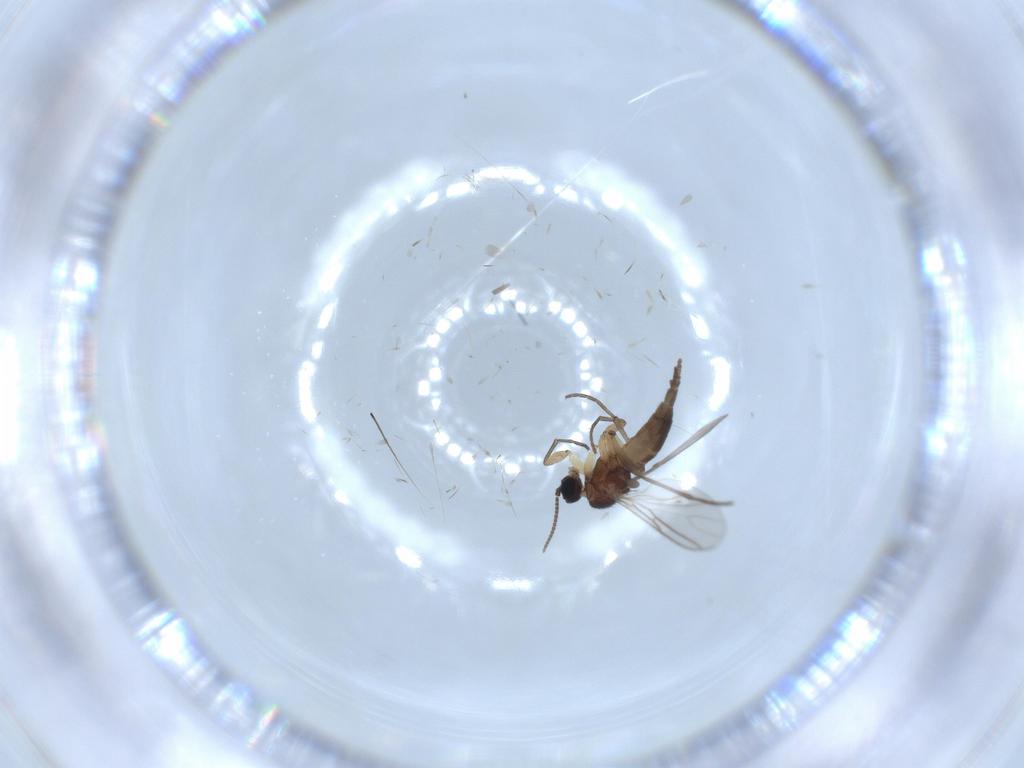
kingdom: Animalia
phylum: Arthropoda
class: Insecta
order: Diptera
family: Sciaridae
